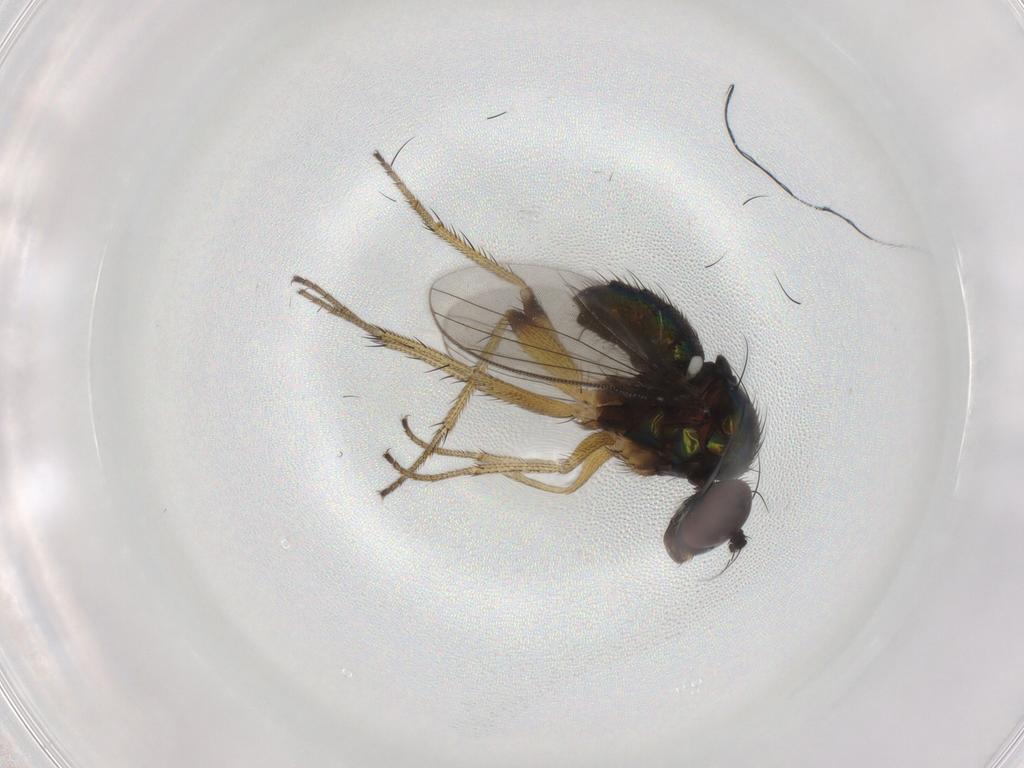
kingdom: Animalia
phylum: Arthropoda
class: Insecta
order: Diptera
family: Dolichopodidae
